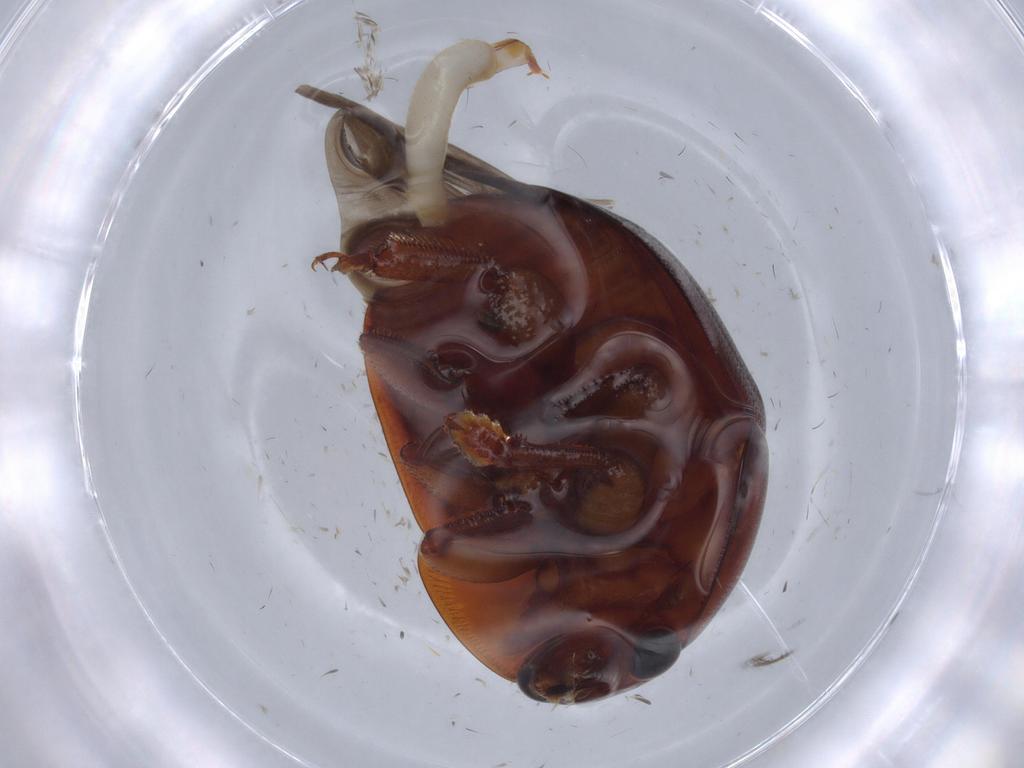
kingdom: Animalia
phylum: Arthropoda
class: Insecta
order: Coleoptera
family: Nitidulidae
